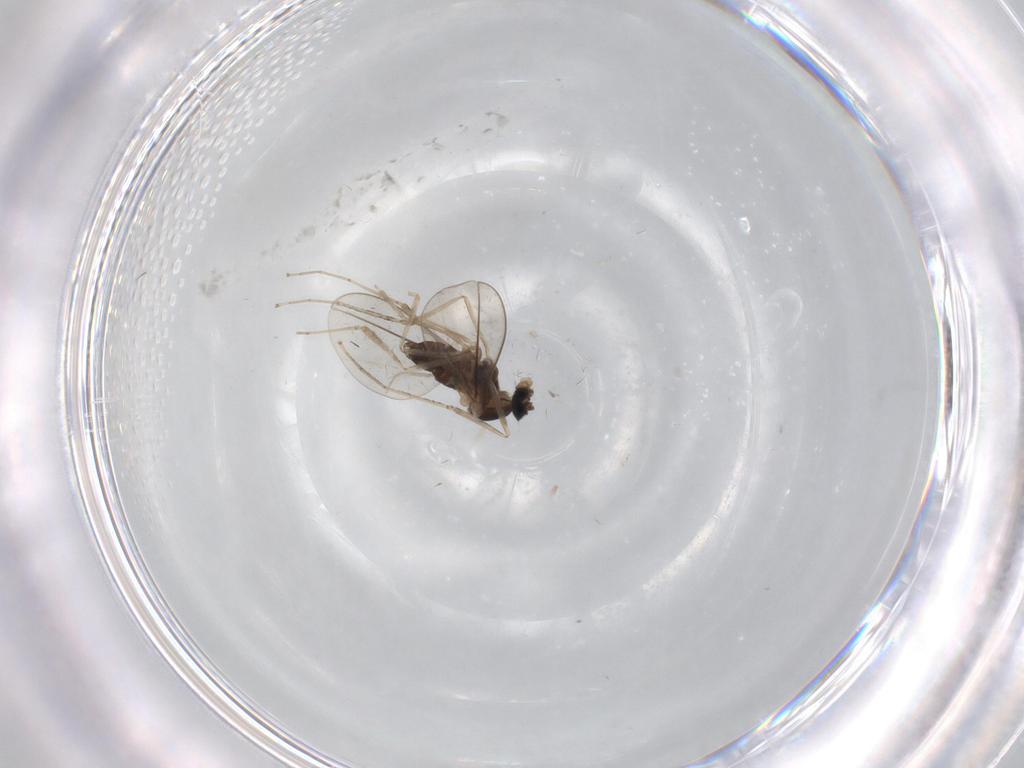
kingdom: Animalia
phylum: Arthropoda
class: Insecta
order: Diptera
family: Cecidomyiidae
